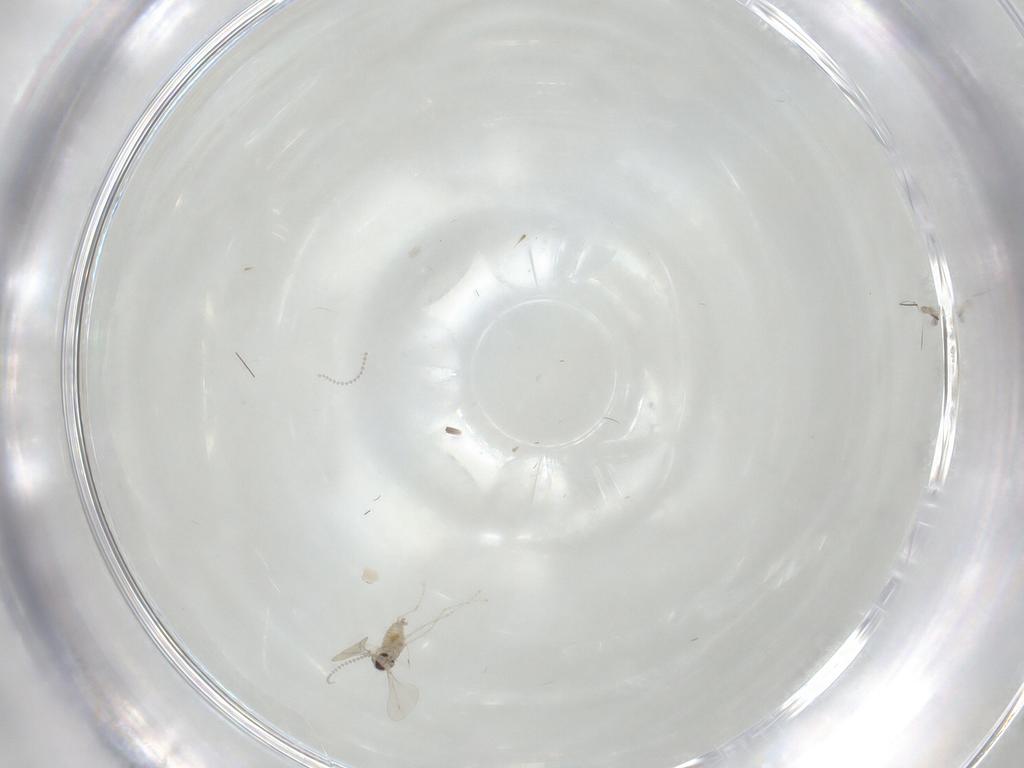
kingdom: Animalia
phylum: Arthropoda
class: Insecta
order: Diptera
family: Cecidomyiidae
